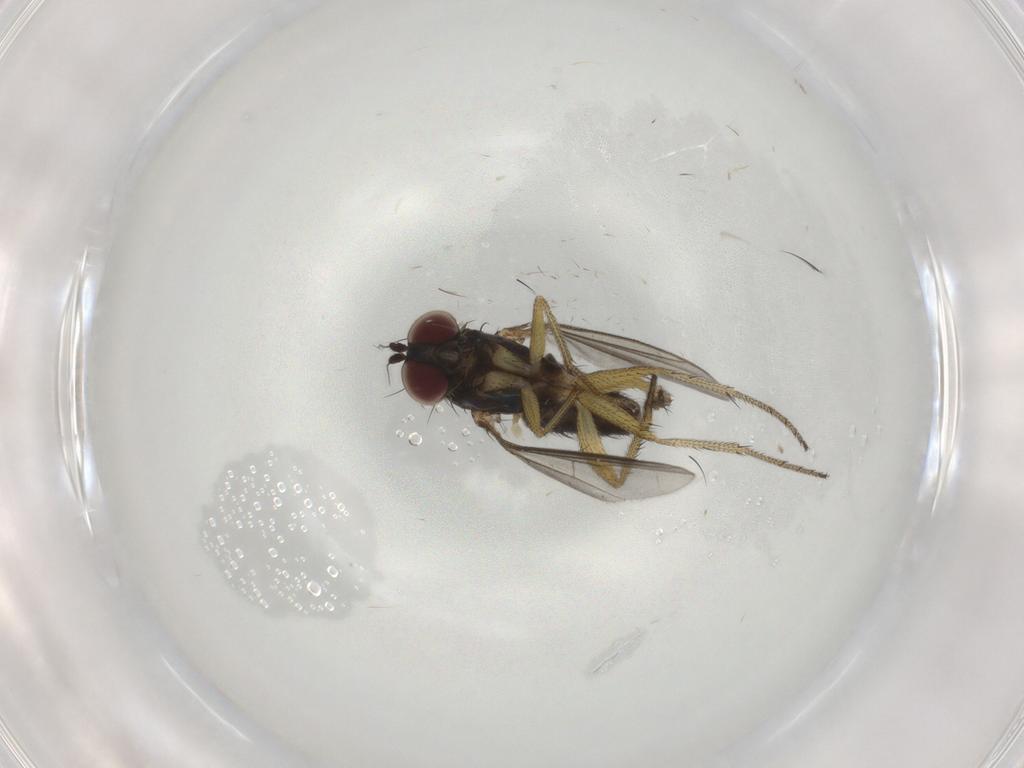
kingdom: Animalia
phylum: Arthropoda
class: Insecta
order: Diptera
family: Dolichopodidae
